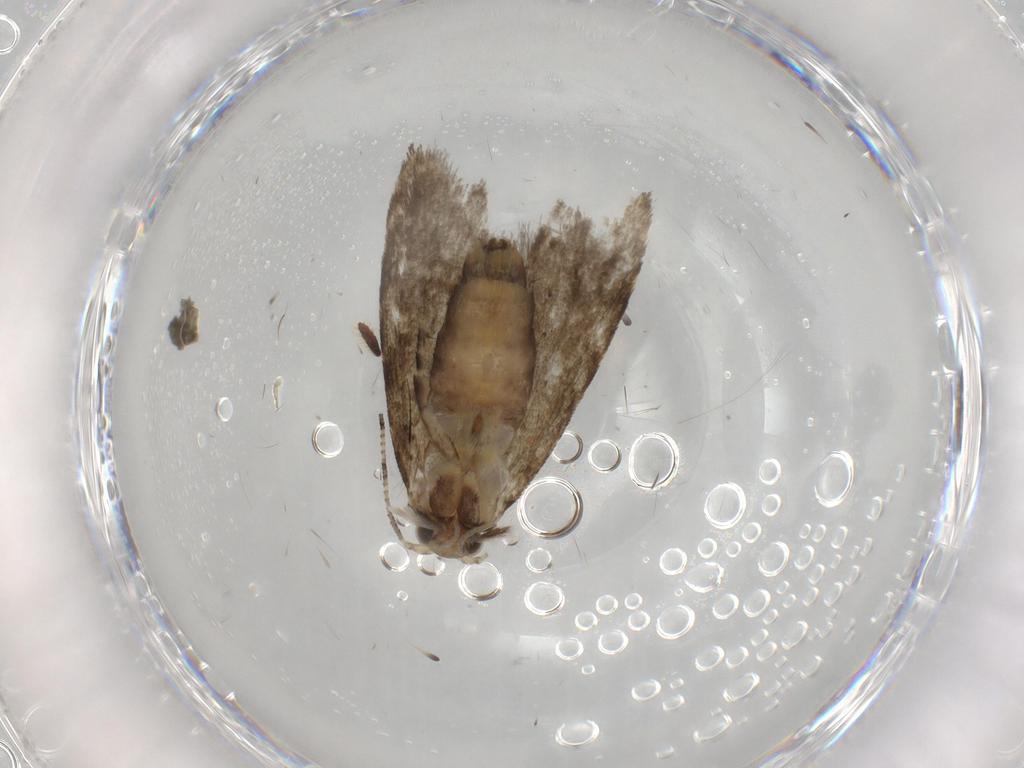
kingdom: Animalia
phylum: Arthropoda
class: Insecta
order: Lepidoptera
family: Tineidae
